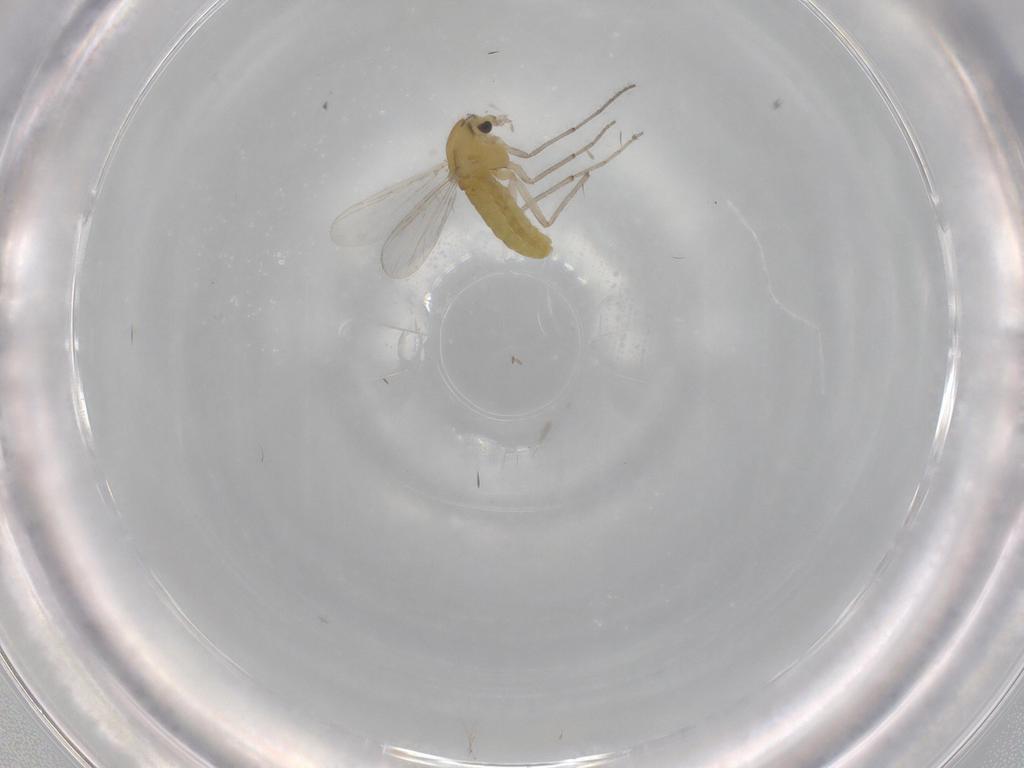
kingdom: Animalia
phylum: Arthropoda
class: Insecta
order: Diptera
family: Chironomidae
